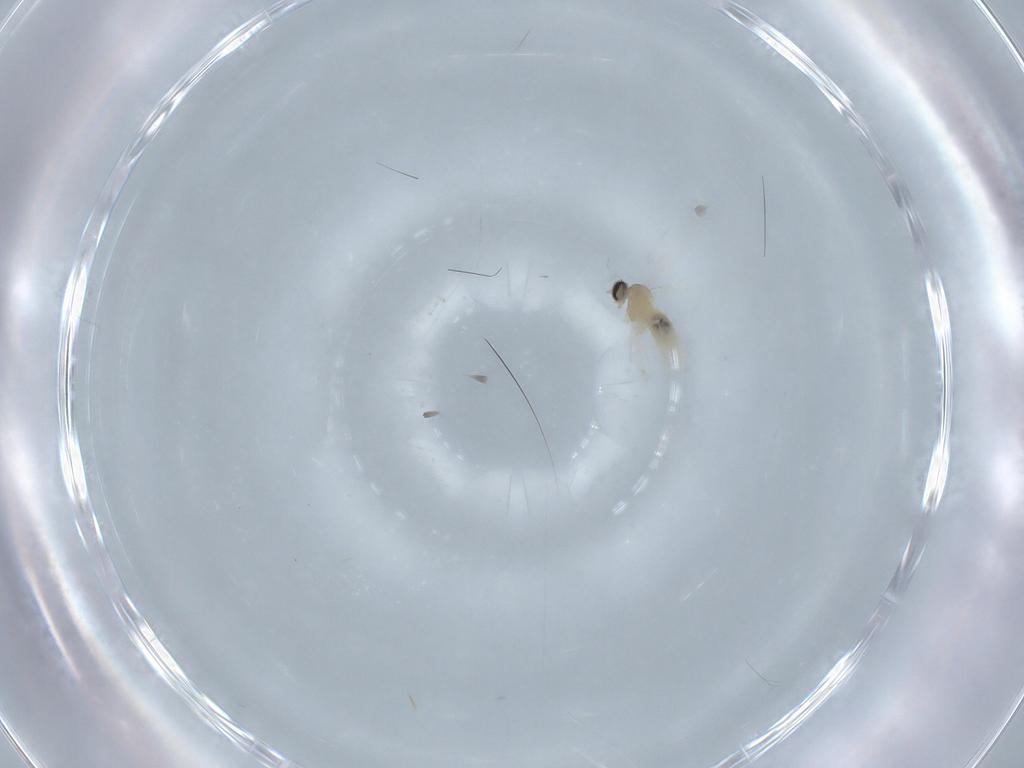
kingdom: Animalia
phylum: Arthropoda
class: Insecta
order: Diptera
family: Cecidomyiidae
